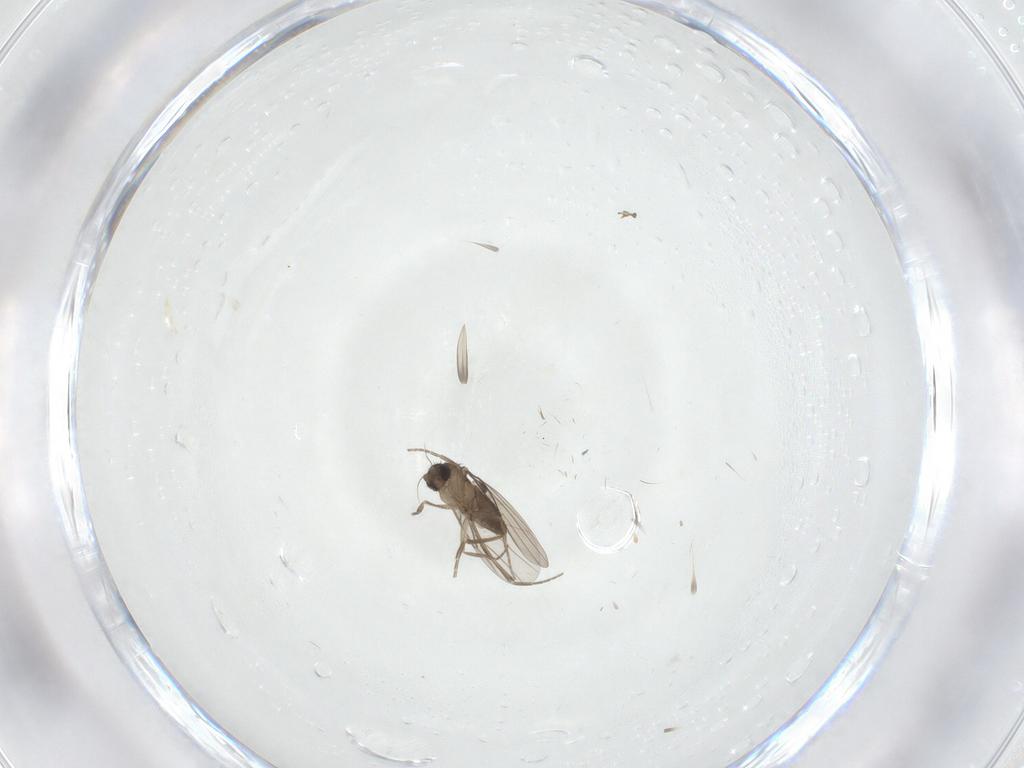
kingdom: Animalia
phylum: Arthropoda
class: Insecta
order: Diptera
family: Phoridae
